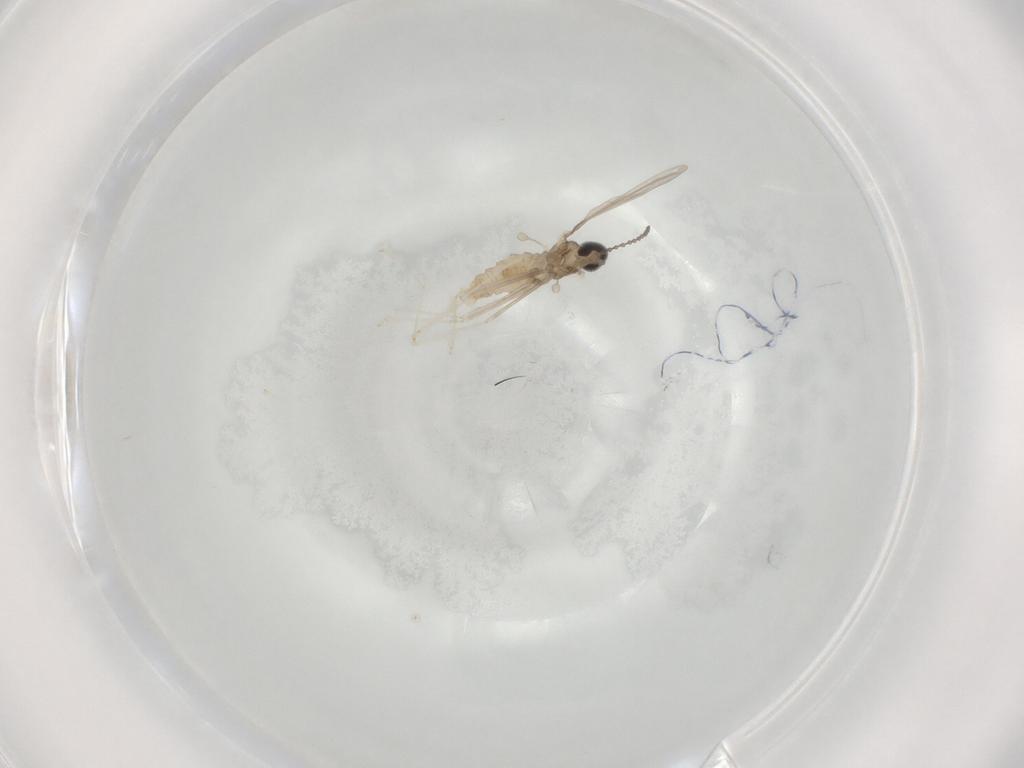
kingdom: Animalia
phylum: Arthropoda
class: Insecta
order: Diptera
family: Cecidomyiidae
